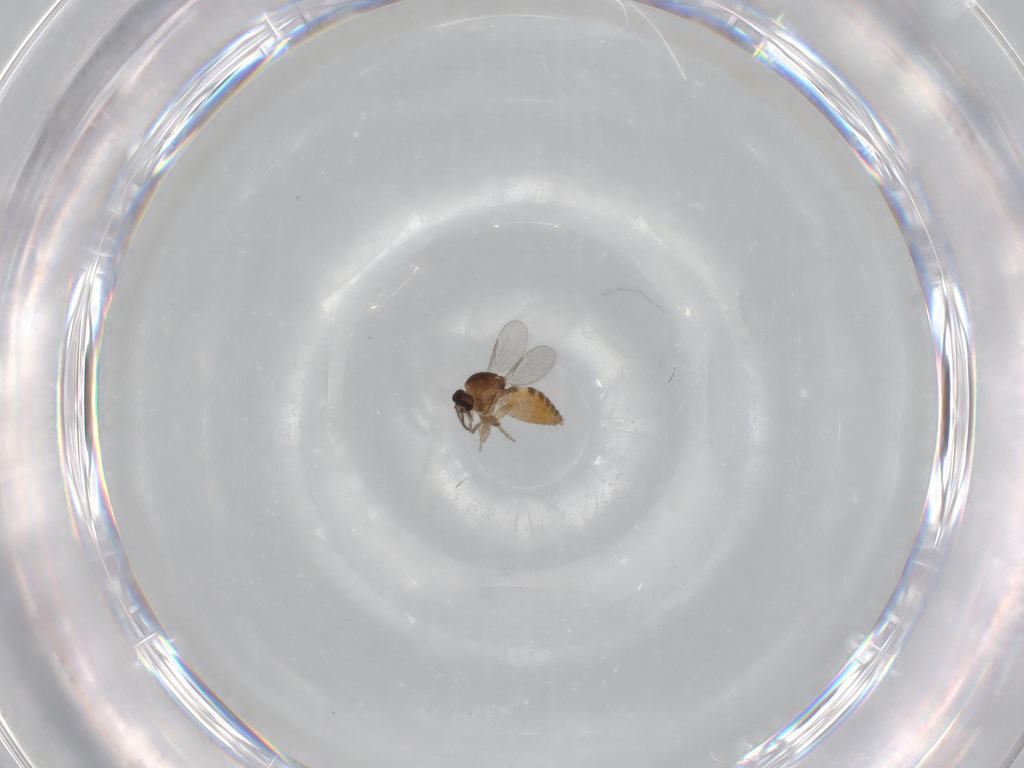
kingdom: Animalia
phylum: Arthropoda
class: Insecta
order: Diptera
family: Ceratopogonidae
